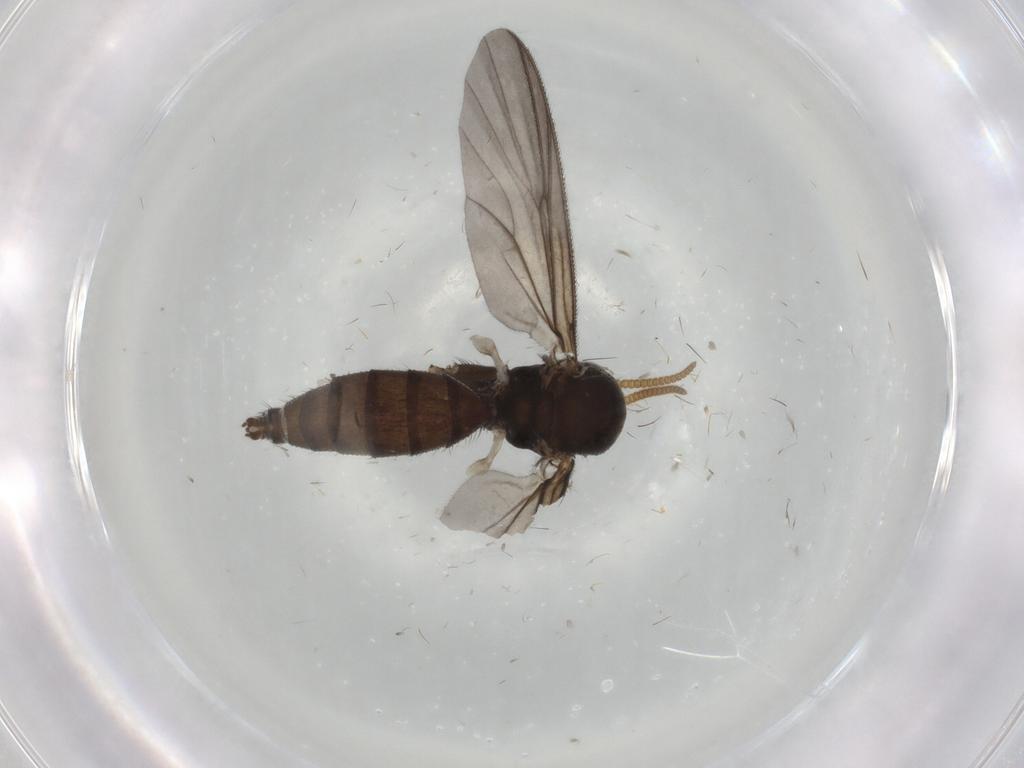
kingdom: Animalia
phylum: Arthropoda
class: Insecta
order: Diptera
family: Mycetophilidae
